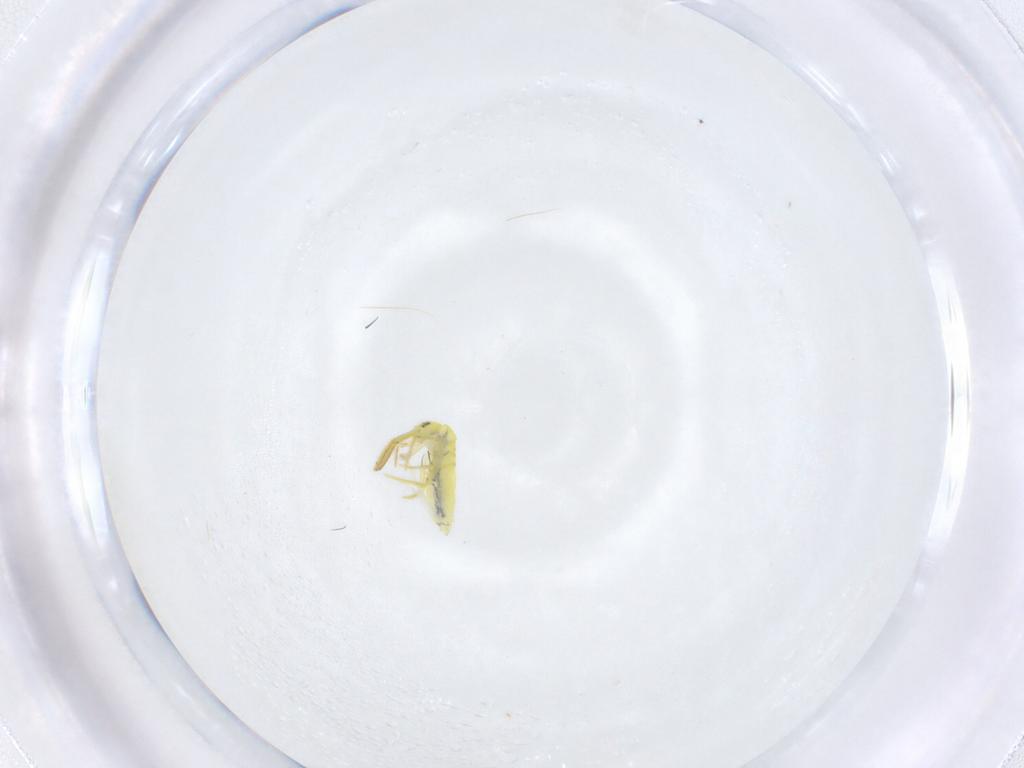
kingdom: Animalia
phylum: Arthropoda
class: Collembola
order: Entomobryomorpha
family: Entomobryidae
